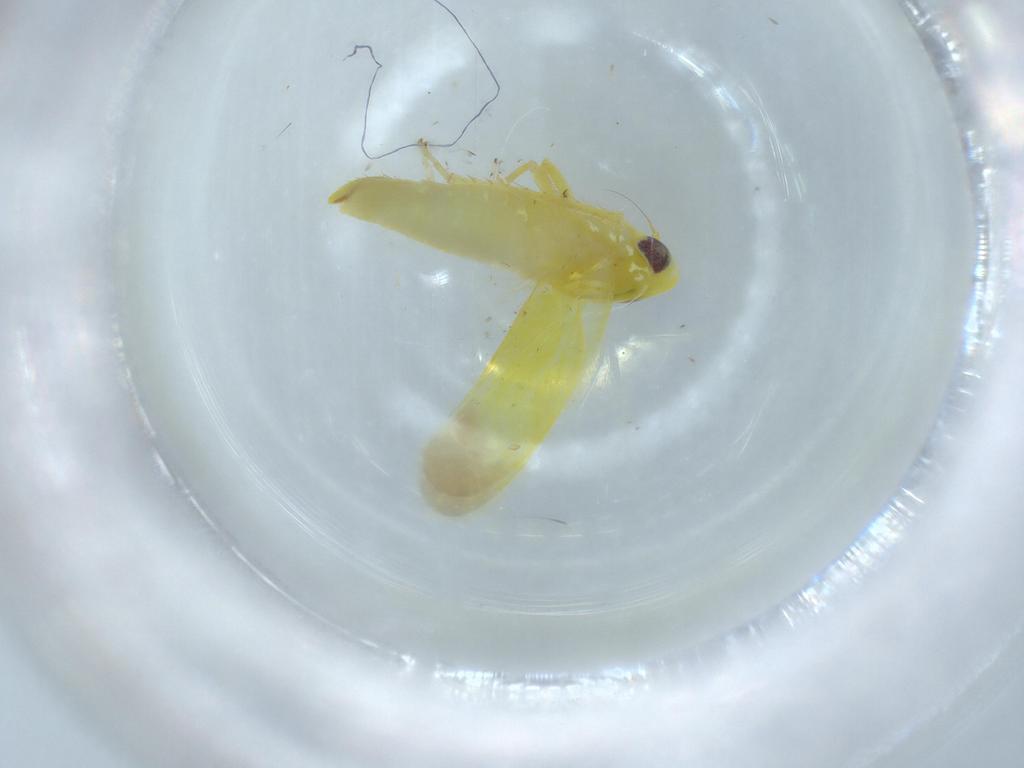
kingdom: Animalia
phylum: Arthropoda
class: Insecta
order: Hemiptera
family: Cicadellidae
